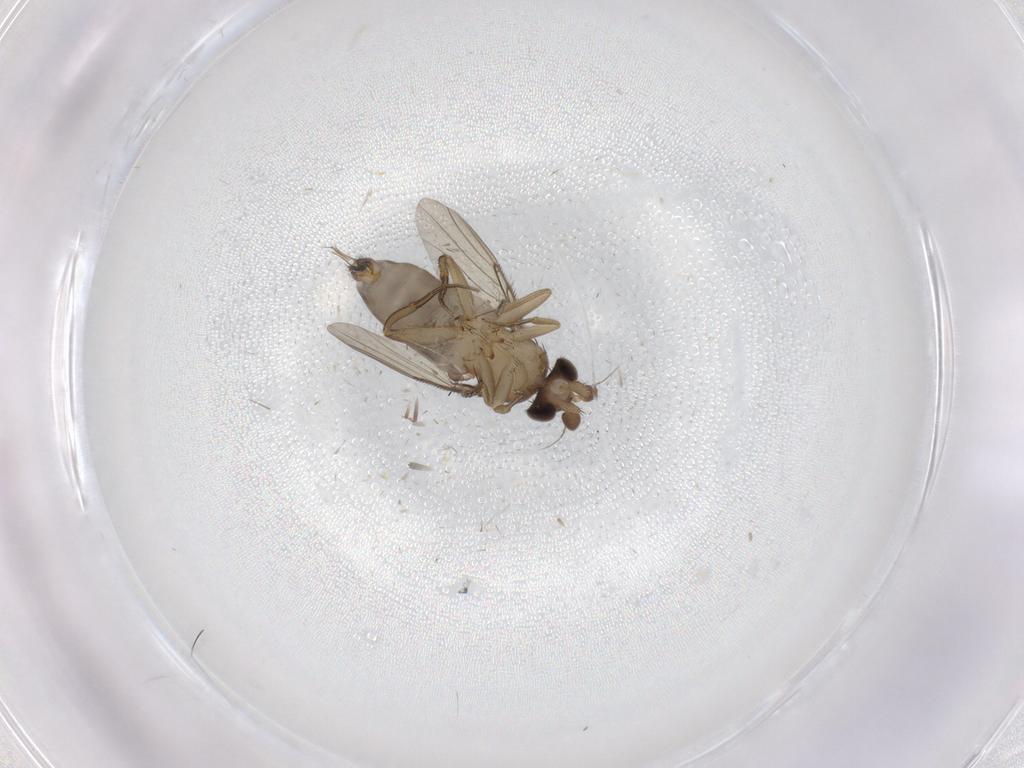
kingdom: Animalia
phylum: Arthropoda
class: Insecta
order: Diptera
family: Phoridae
